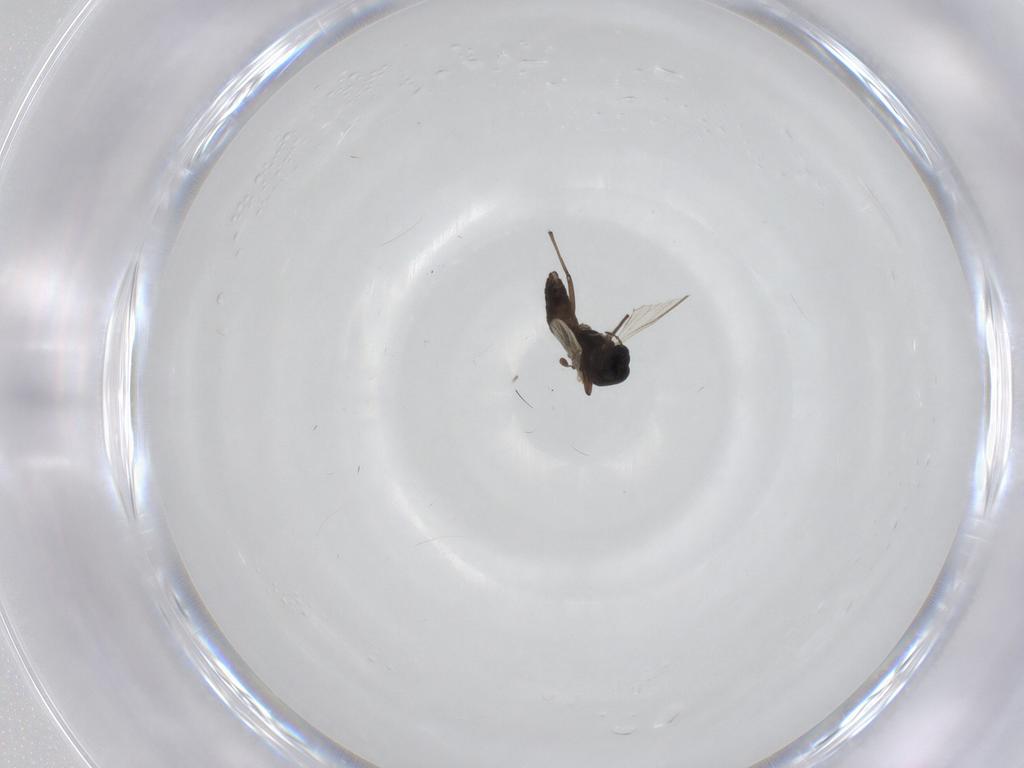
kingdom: Animalia
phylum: Arthropoda
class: Insecta
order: Diptera
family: Chironomidae
